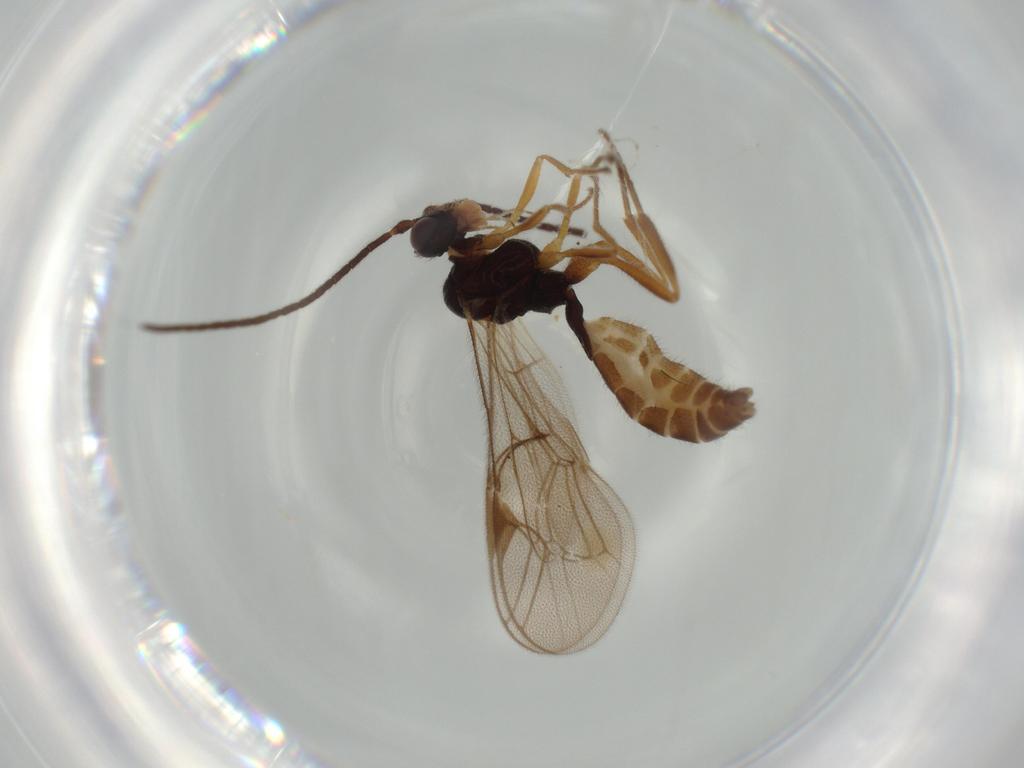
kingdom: Animalia
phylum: Arthropoda
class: Insecta
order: Hymenoptera
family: Ichneumonidae
